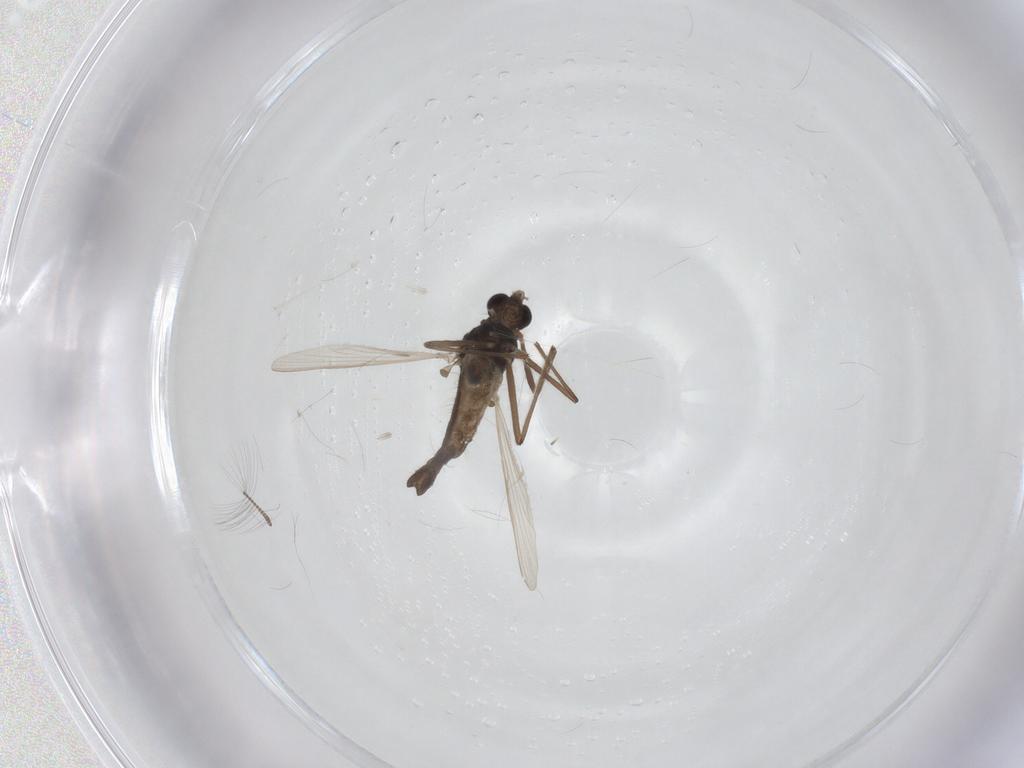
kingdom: Animalia
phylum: Arthropoda
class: Insecta
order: Diptera
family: Chironomidae
